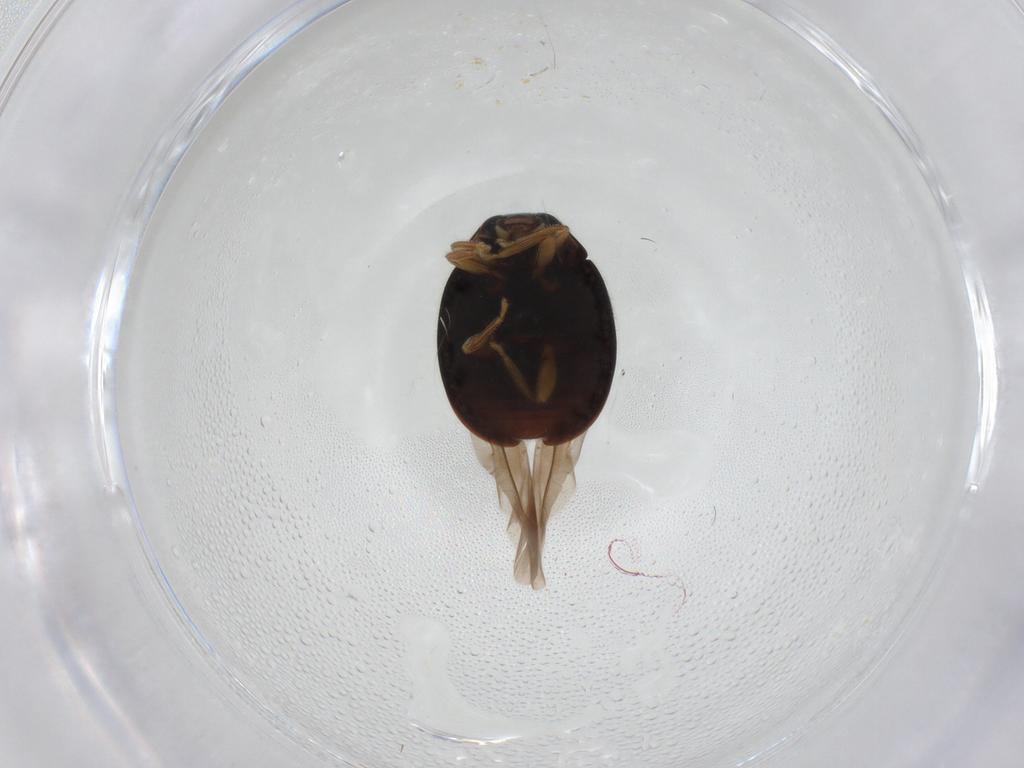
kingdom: Animalia
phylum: Arthropoda
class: Insecta
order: Coleoptera
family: Coccinellidae
